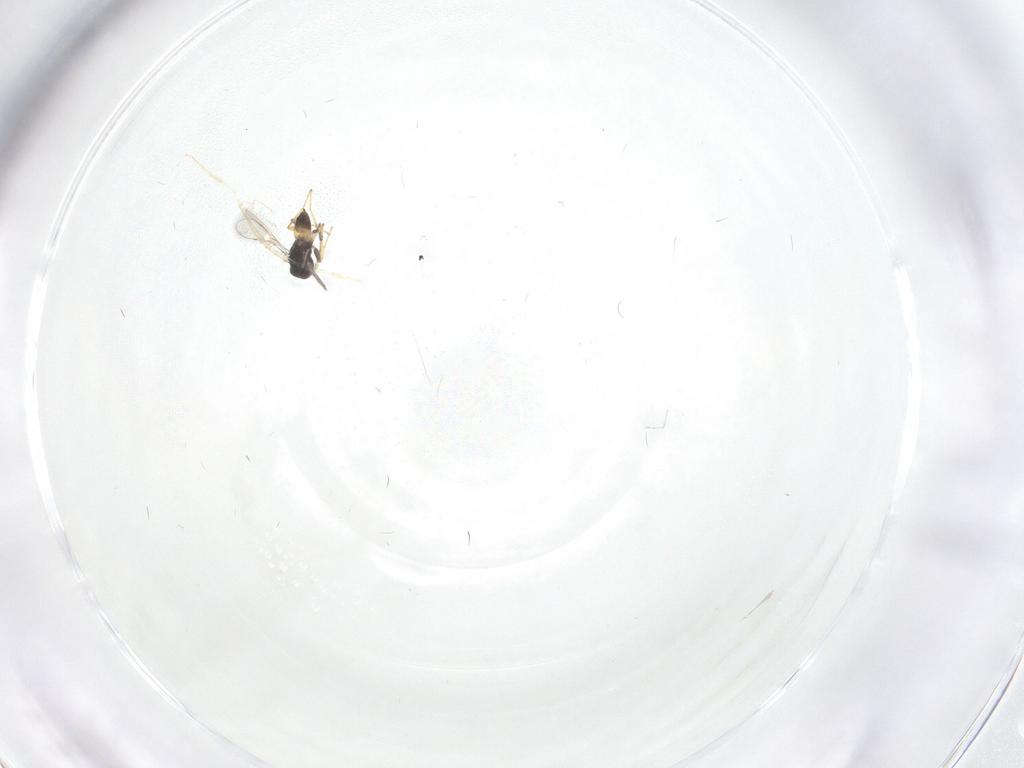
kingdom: Animalia
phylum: Arthropoda
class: Insecta
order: Hymenoptera
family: Mymaridae
